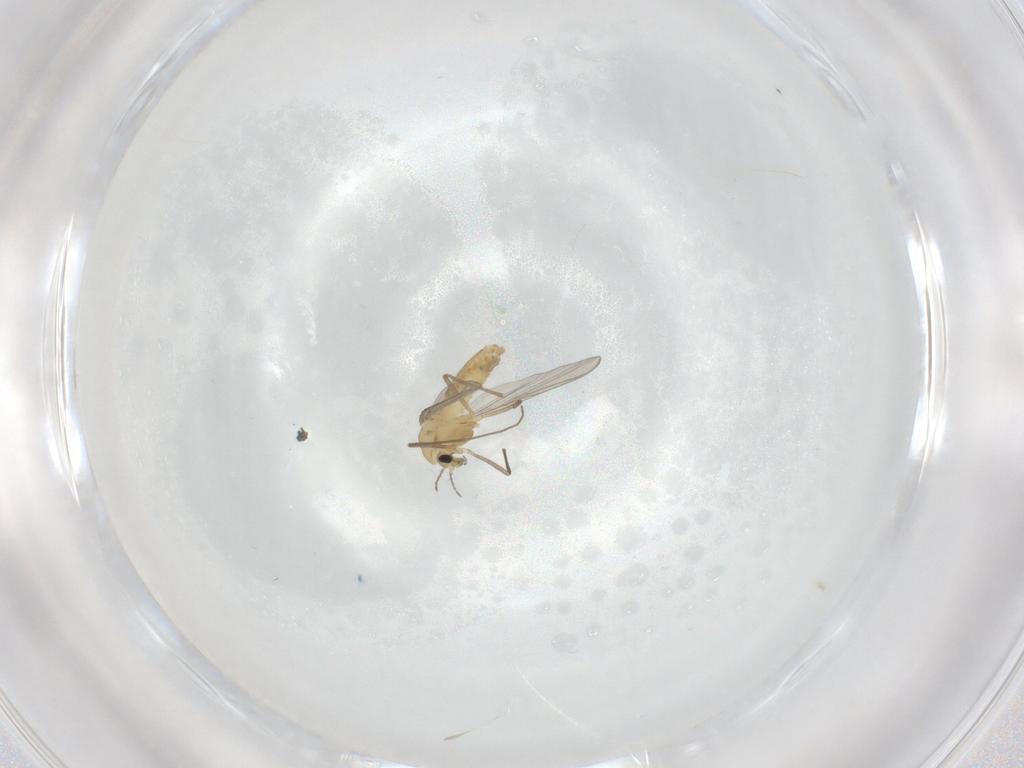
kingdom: Animalia
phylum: Arthropoda
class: Insecta
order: Diptera
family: Chironomidae
